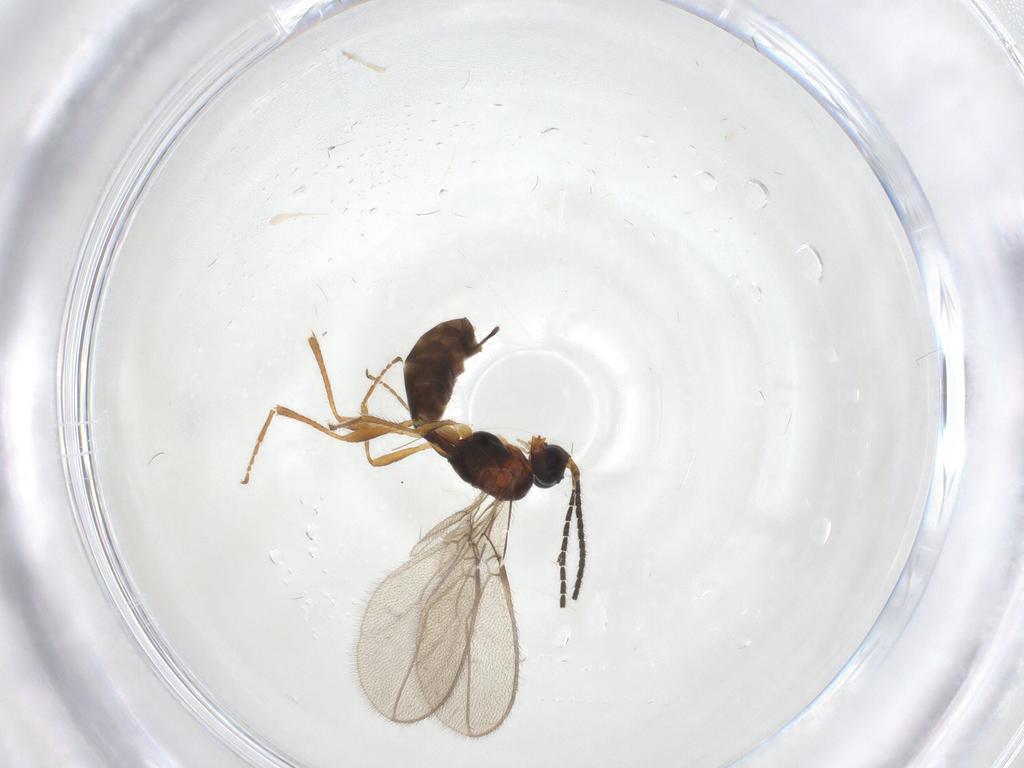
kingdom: Animalia
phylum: Arthropoda
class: Insecta
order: Hymenoptera
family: Braconidae
